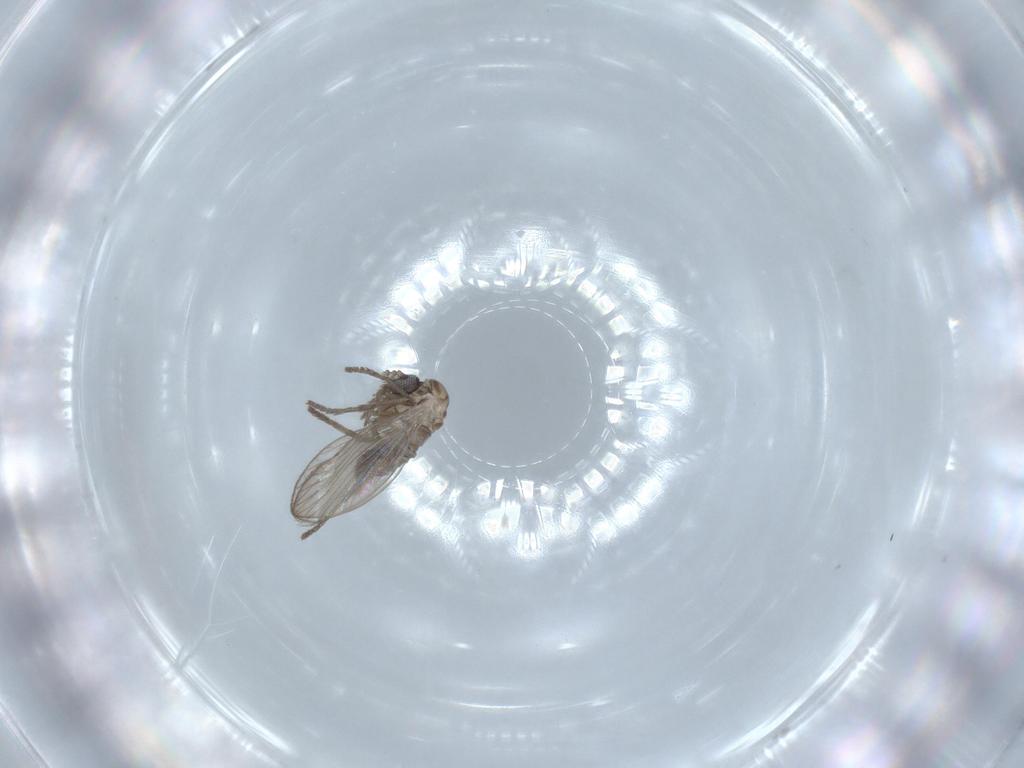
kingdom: Animalia
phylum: Arthropoda
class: Insecta
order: Diptera
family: Psychodidae
